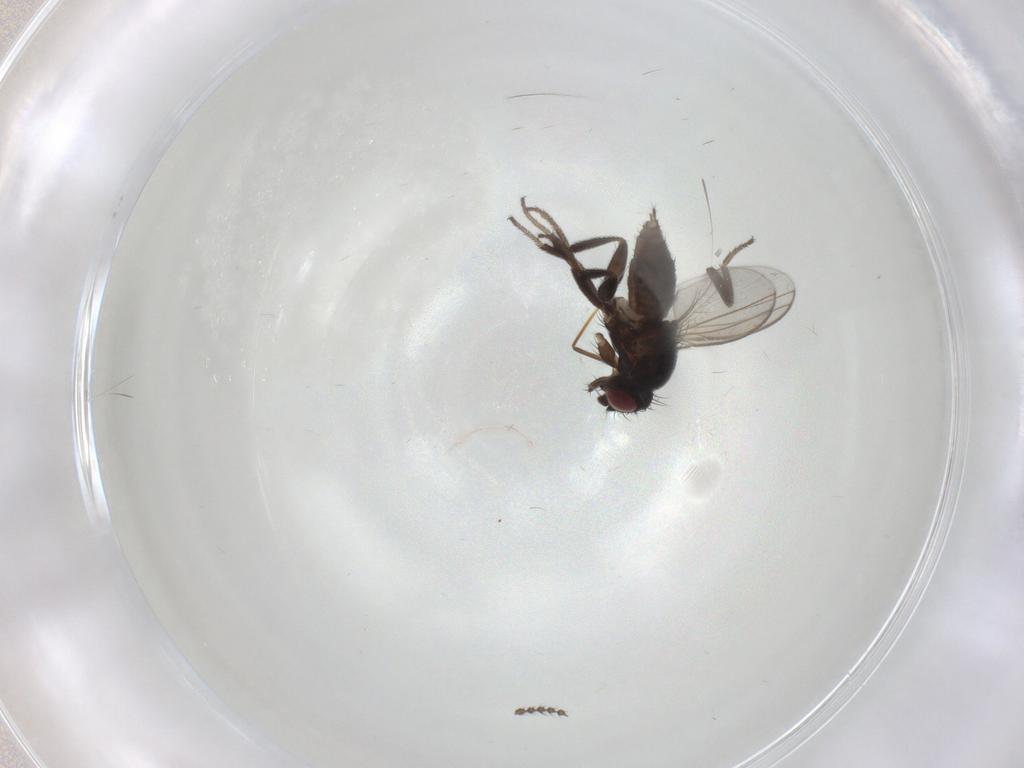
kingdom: Animalia
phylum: Arthropoda
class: Insecta
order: Diptera
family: Milichiidae
